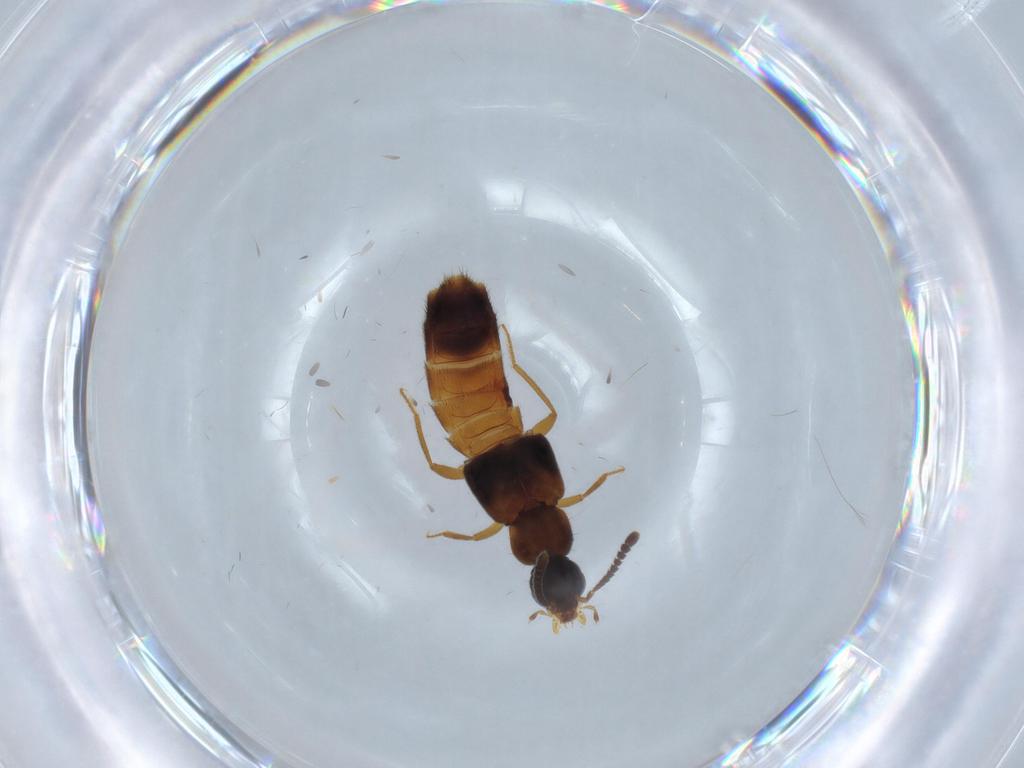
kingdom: Animalia
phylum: Arthropoda
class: Insecta
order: Coleoptera
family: Staphylinidae
